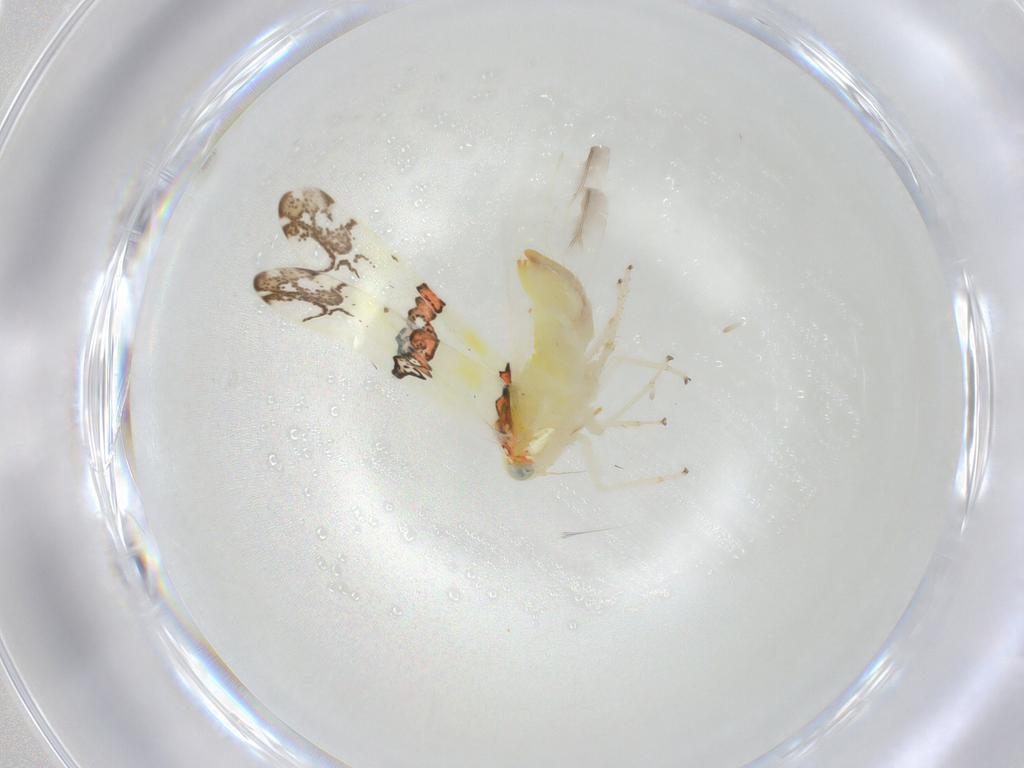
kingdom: Animalia
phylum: Arthropoda
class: Insecta
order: Hemiptera
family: Cicadellidae
